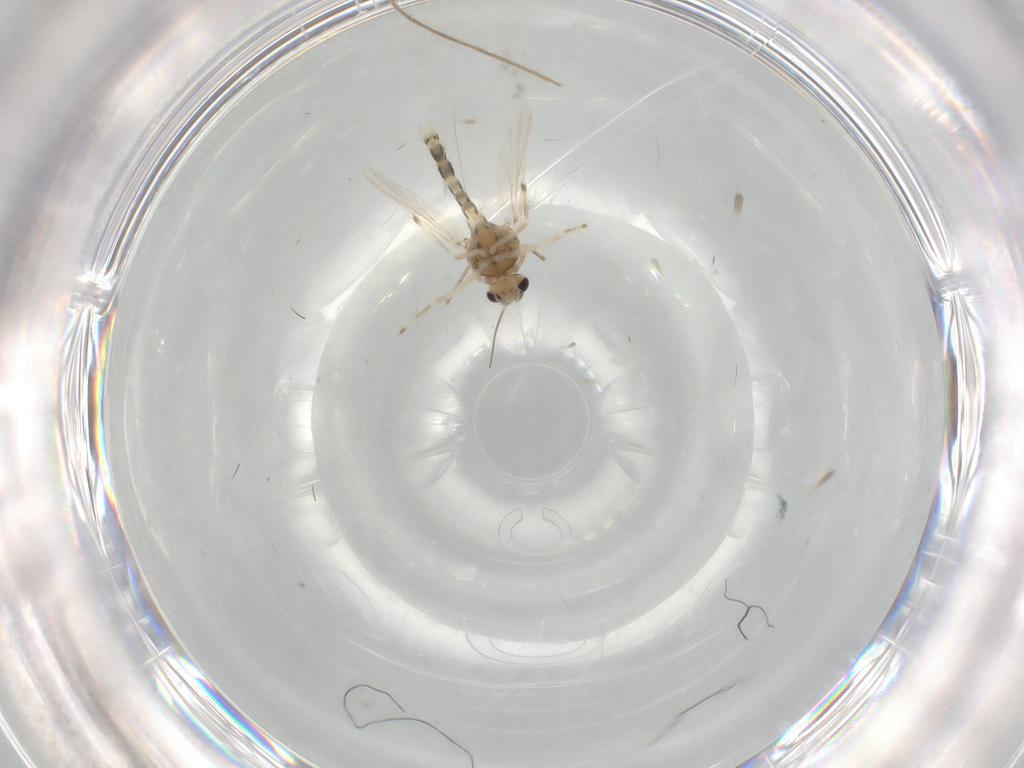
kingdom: Animalia
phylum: Arthropoda
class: Insecta
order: Diptera
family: Chironomidae
